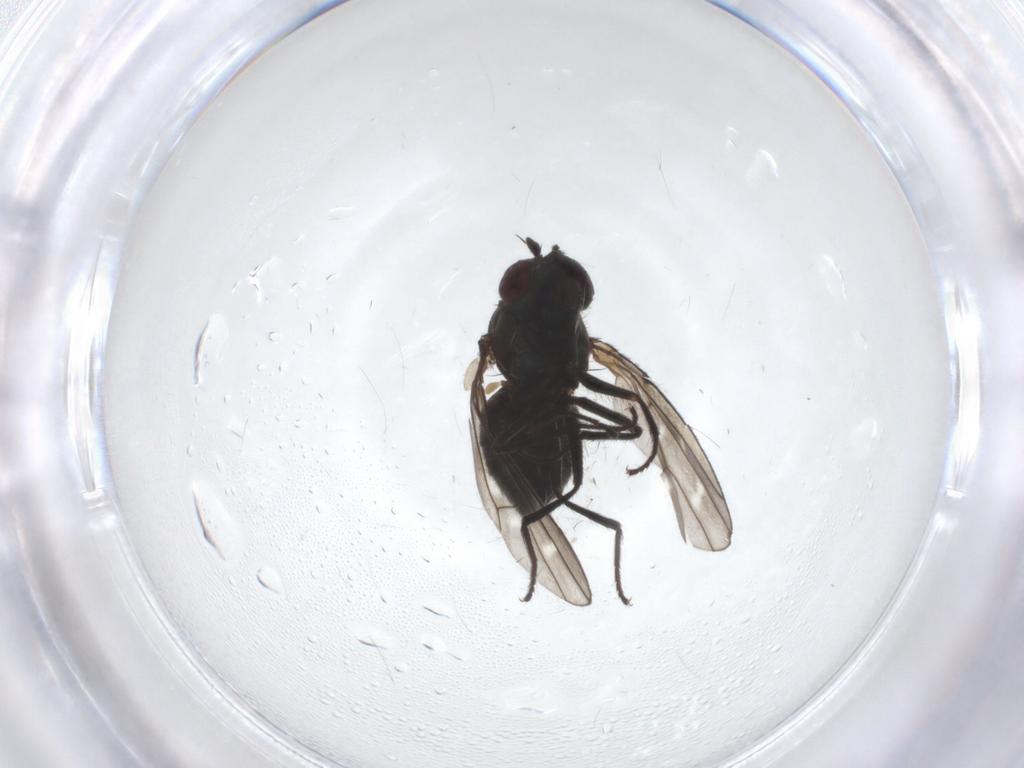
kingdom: Animalia
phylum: Arthropoda
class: Insecta
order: Diptera
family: Ephydridae
